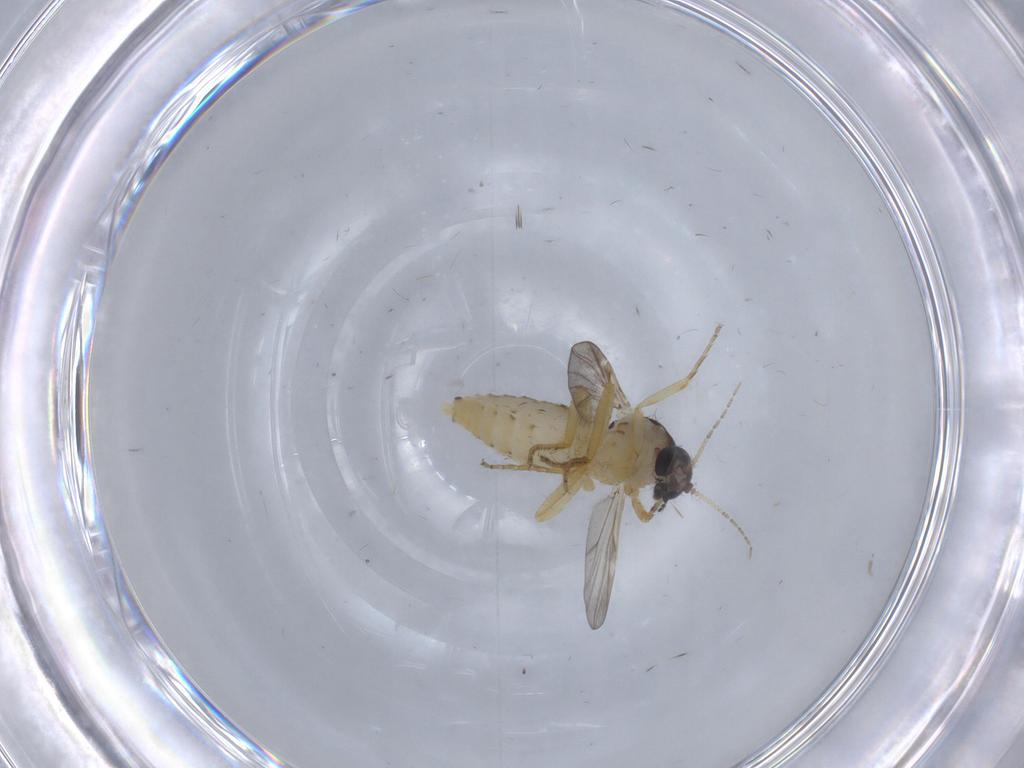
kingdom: Animalia
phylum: Arthropoda
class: Insecta
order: Diptera
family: Ceratopogonidae
